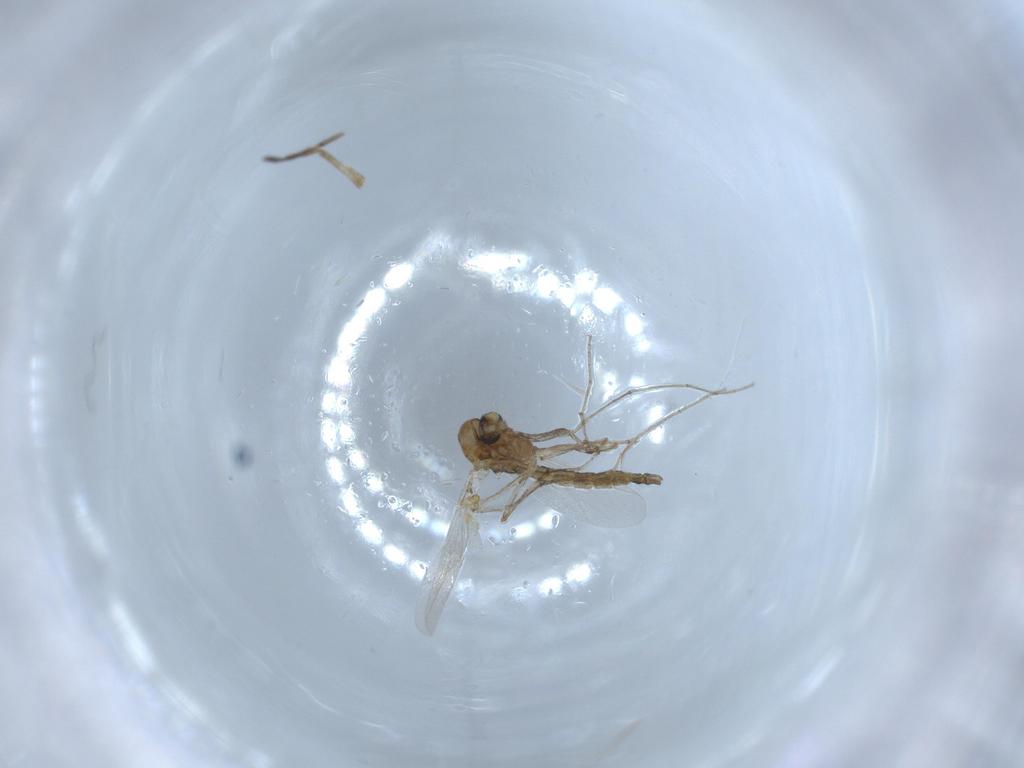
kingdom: Animalia
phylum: Arthropoda
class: Insecta
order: Diptera
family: Chironomidae
